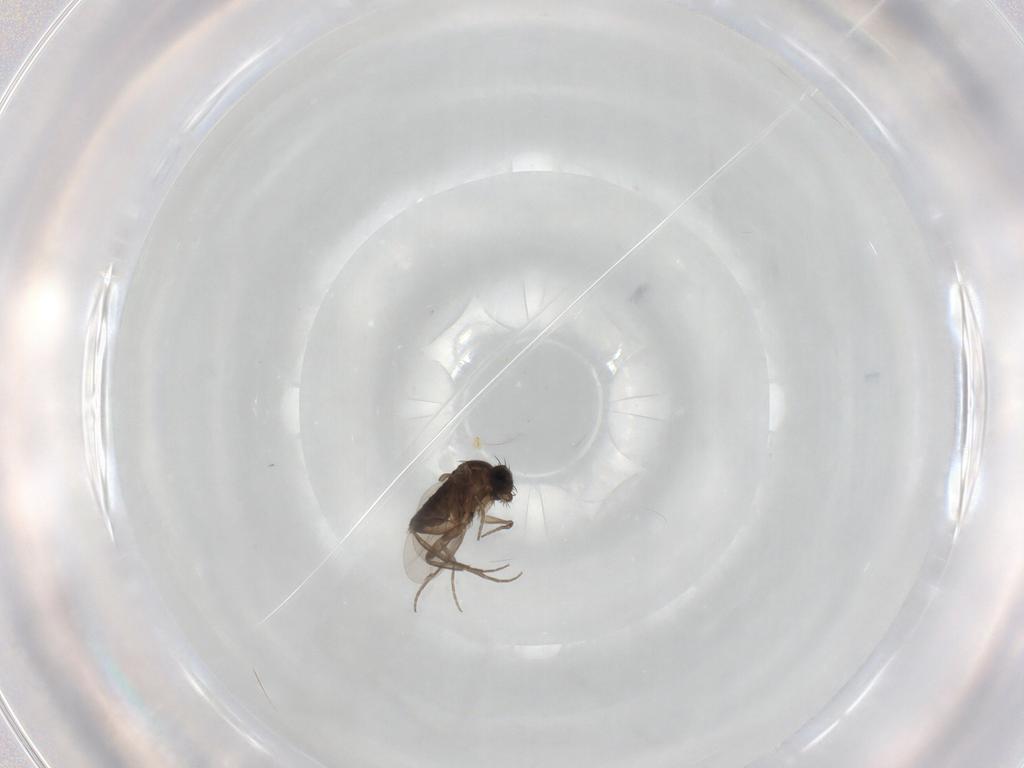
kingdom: Animalia
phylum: Arthropoda
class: Insecta
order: Diptera
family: Phoridae
